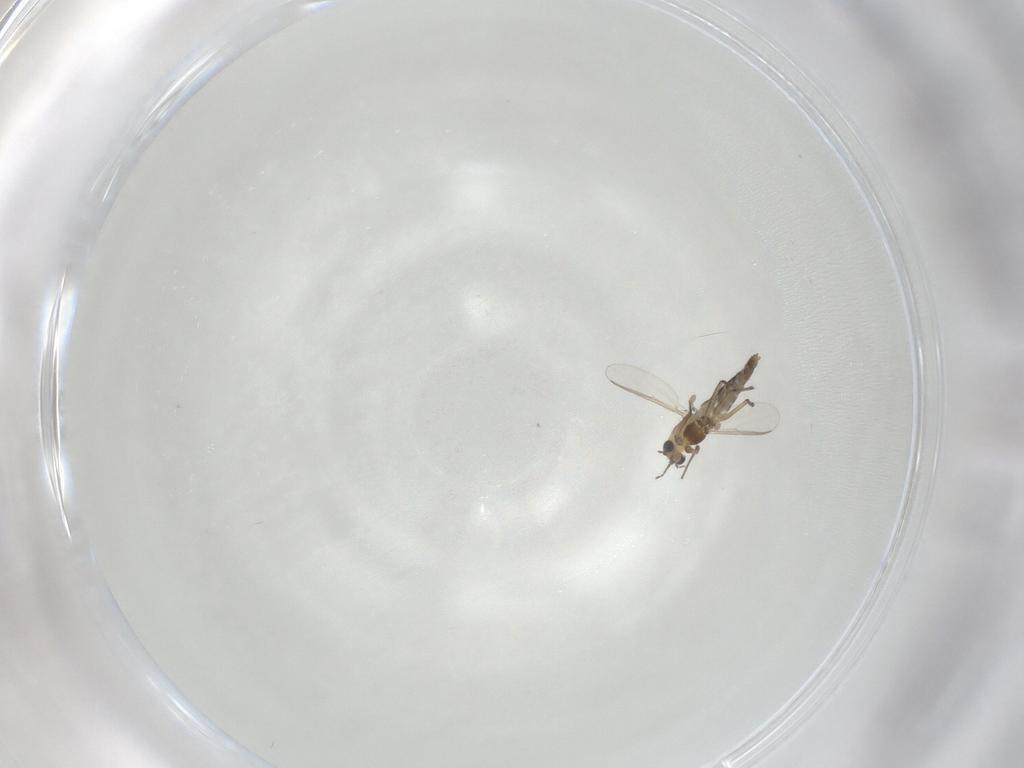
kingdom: Animalia
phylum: Arthropoda
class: Insecta
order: Diptera
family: Chironomidae
